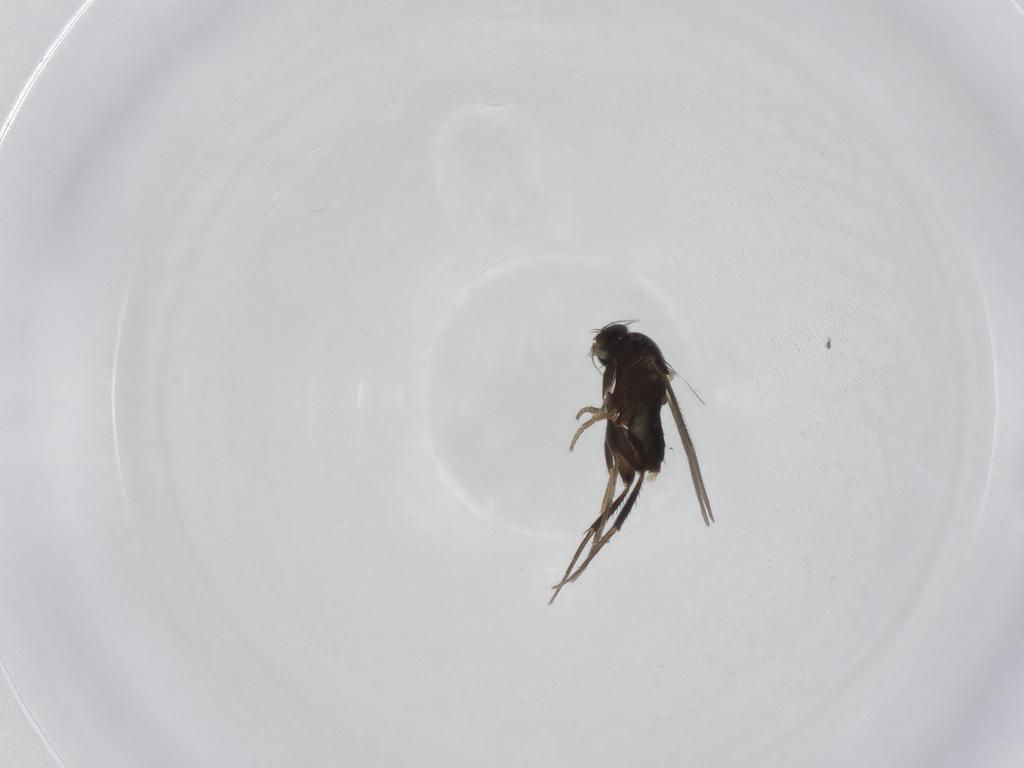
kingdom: Animalia
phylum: Arthropoda
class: Insecta
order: Diptera
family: Phoridae
